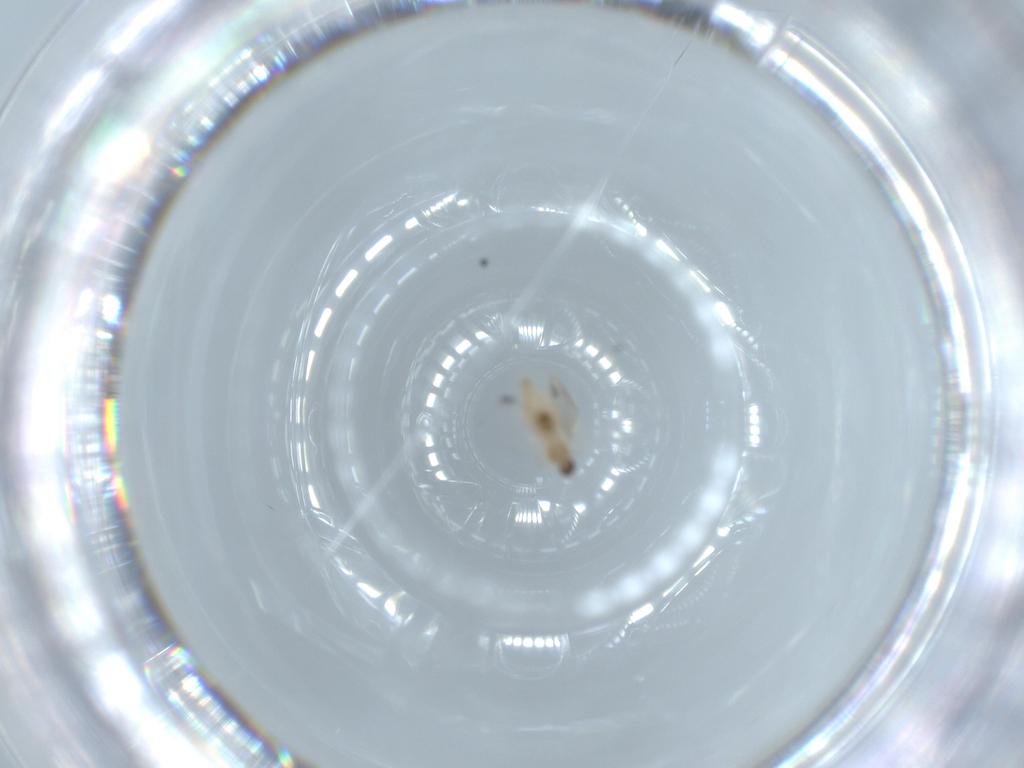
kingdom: Animalia
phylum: Arthropoda
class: Insecta
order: Diptera
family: Cecidomyiidae
